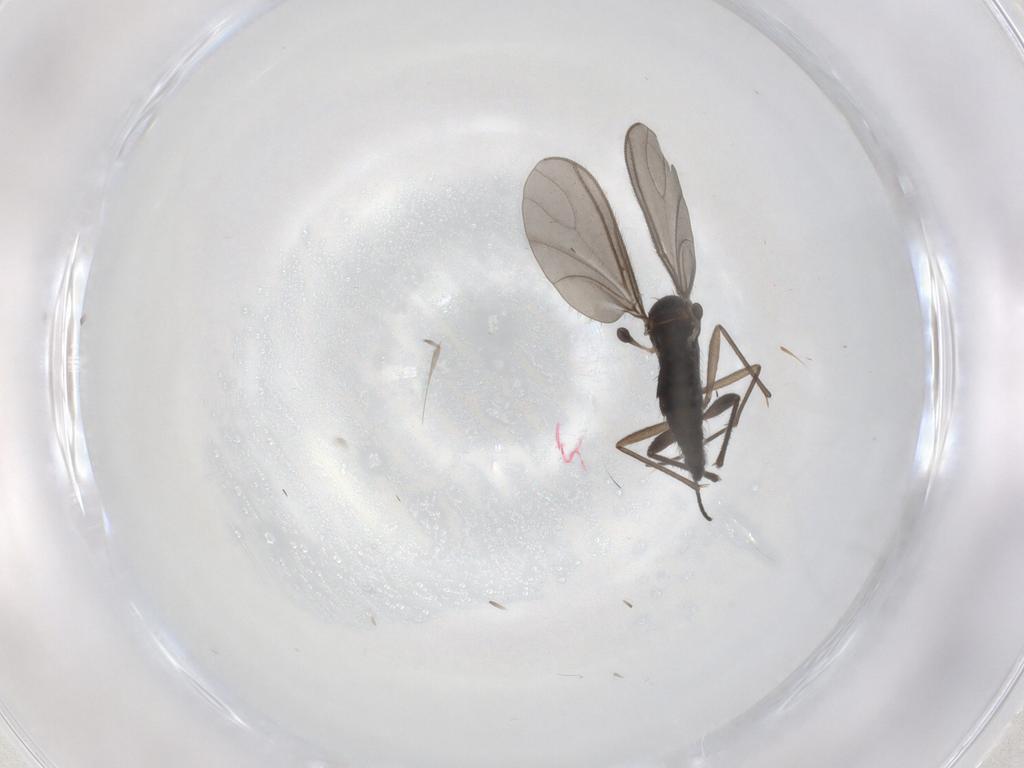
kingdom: Animalia
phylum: Arthropoda
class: Insecta
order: Diptera
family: Sciaridae
